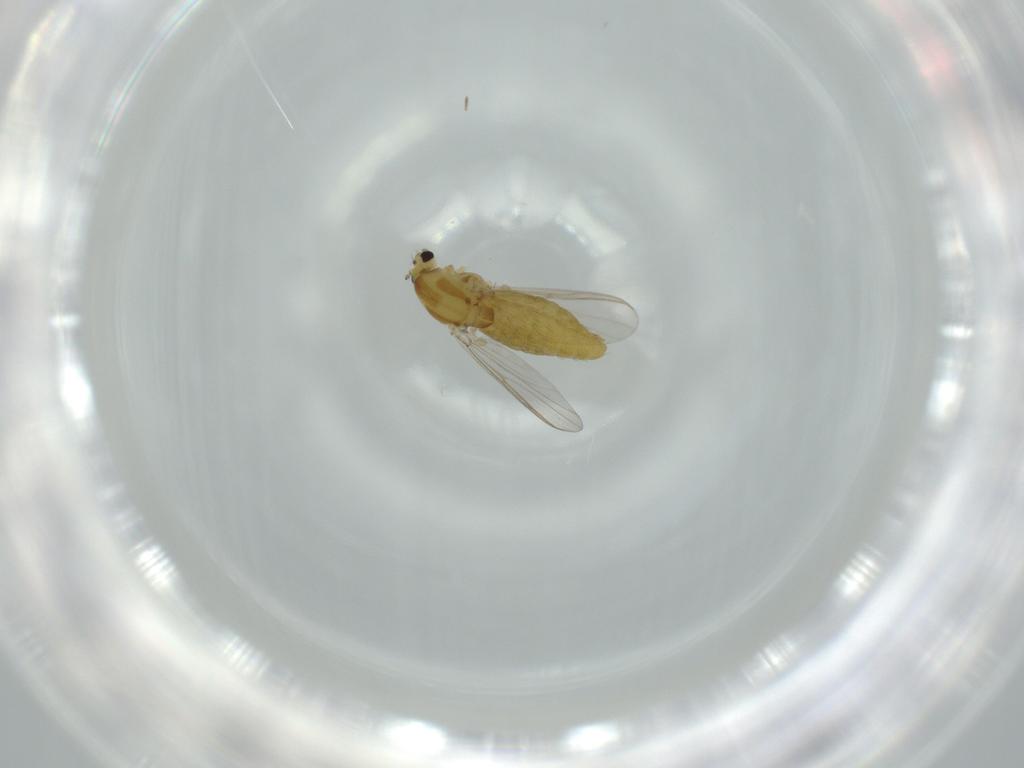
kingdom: Animalia
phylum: Arthropoda
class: Insecta
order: Diptera
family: Chironomidae
